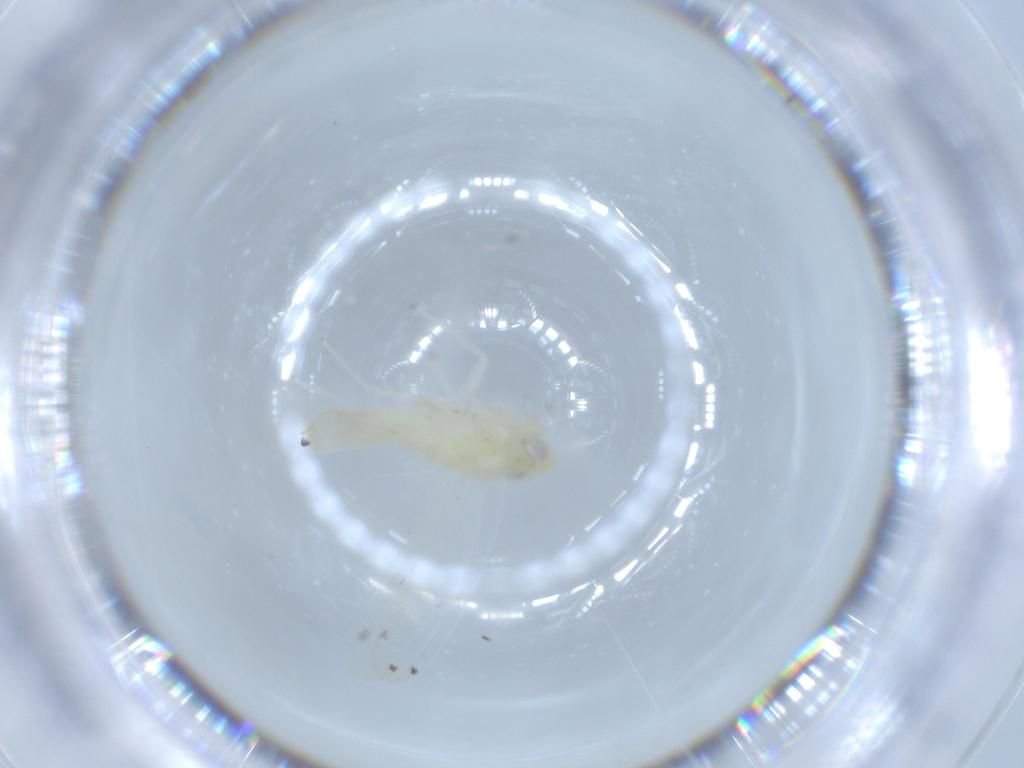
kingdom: Animalia
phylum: Arthropoda
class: Insecta
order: Hemiptera
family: Cicadellidae
